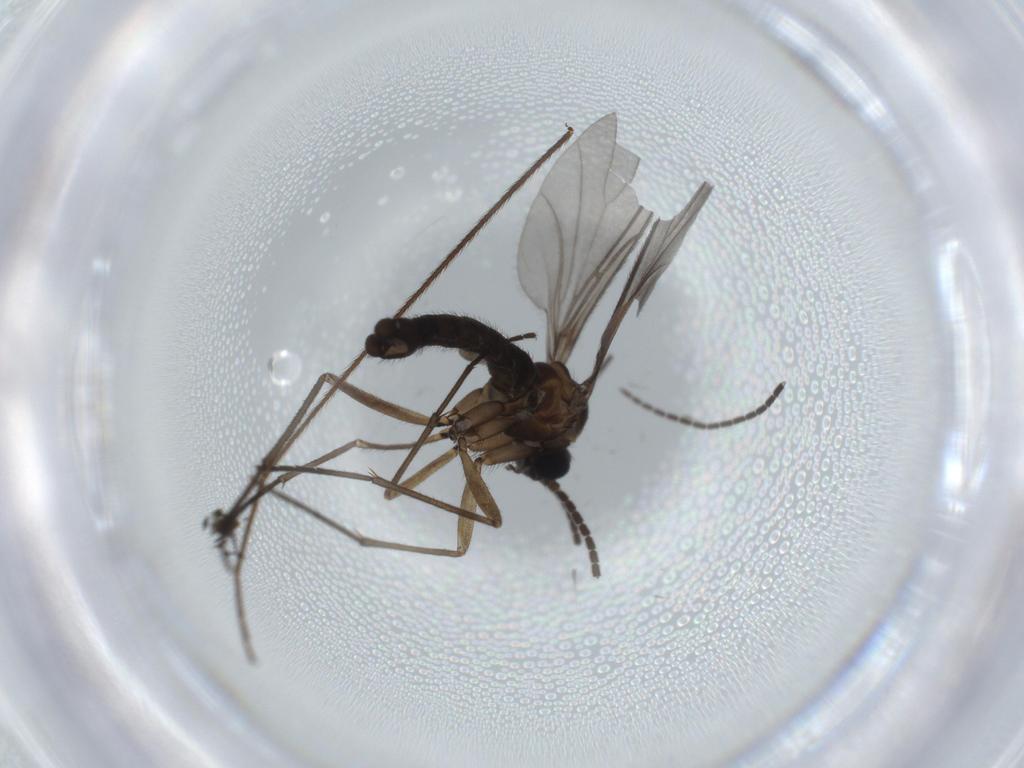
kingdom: Animalia
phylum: Arthropoda
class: Insecta
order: Diptera
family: Sciaridae
